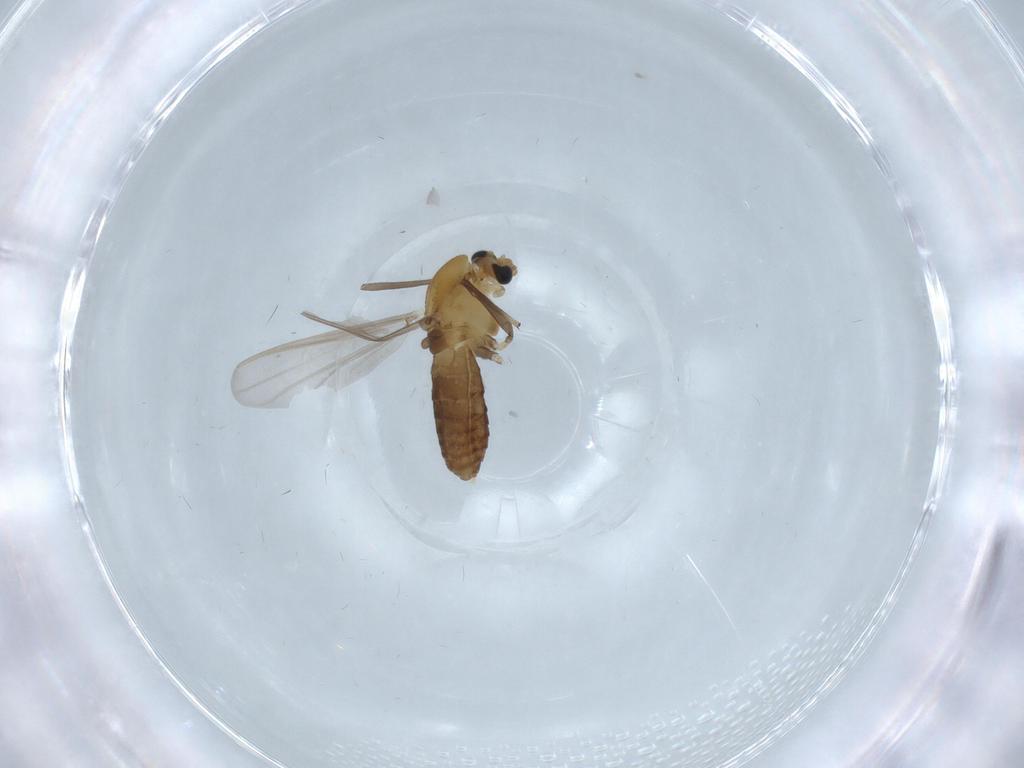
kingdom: Animalia
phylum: Arthropoda
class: Insecta
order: Diptera
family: Chironomidae
